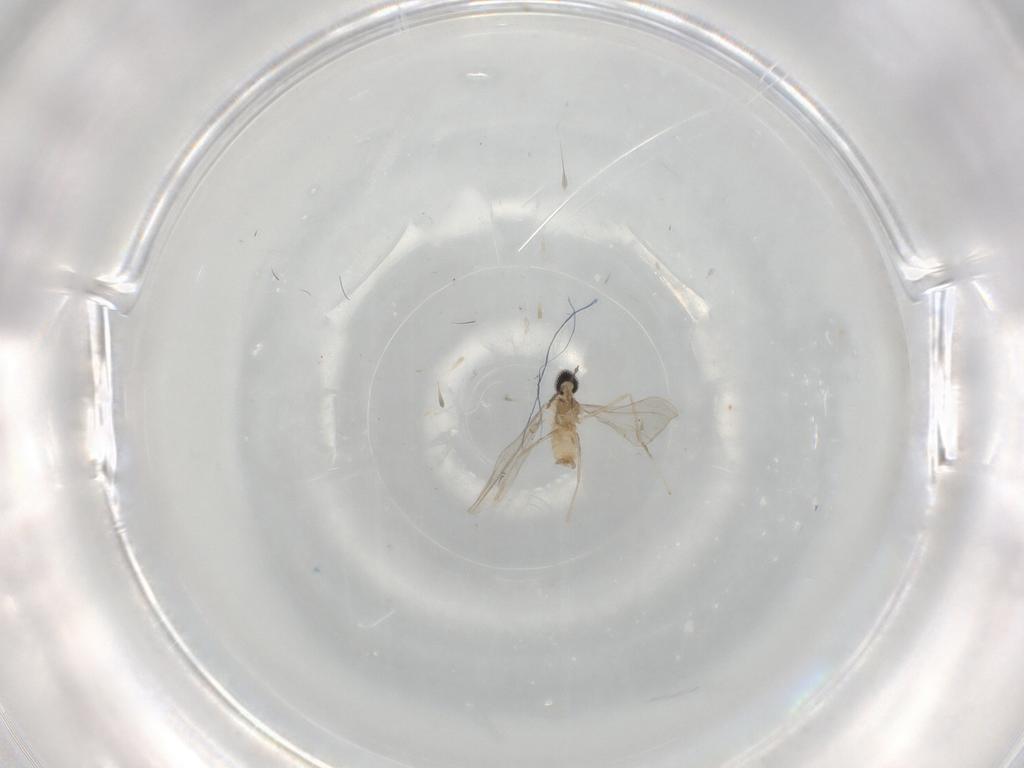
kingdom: Animalia
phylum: Arthropoda
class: Insecta
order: Diptera
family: Cecidomyiidae
